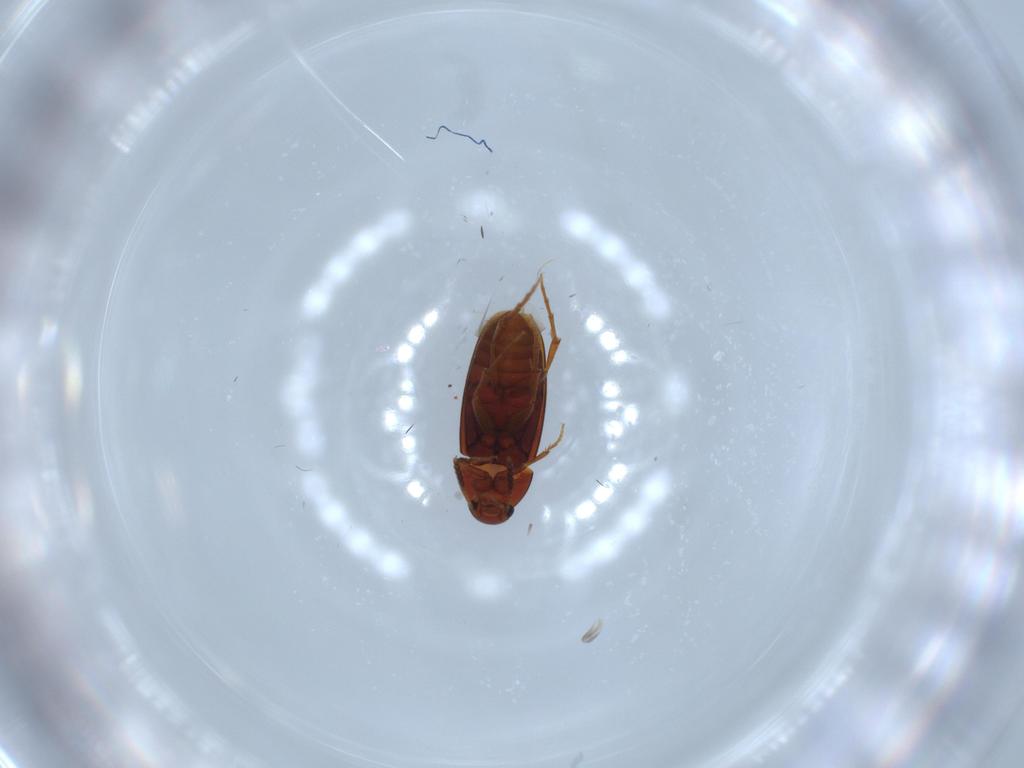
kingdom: Animalia
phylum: Arthropoda
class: Insecta
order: Coleoptera
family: Scraptiidae
